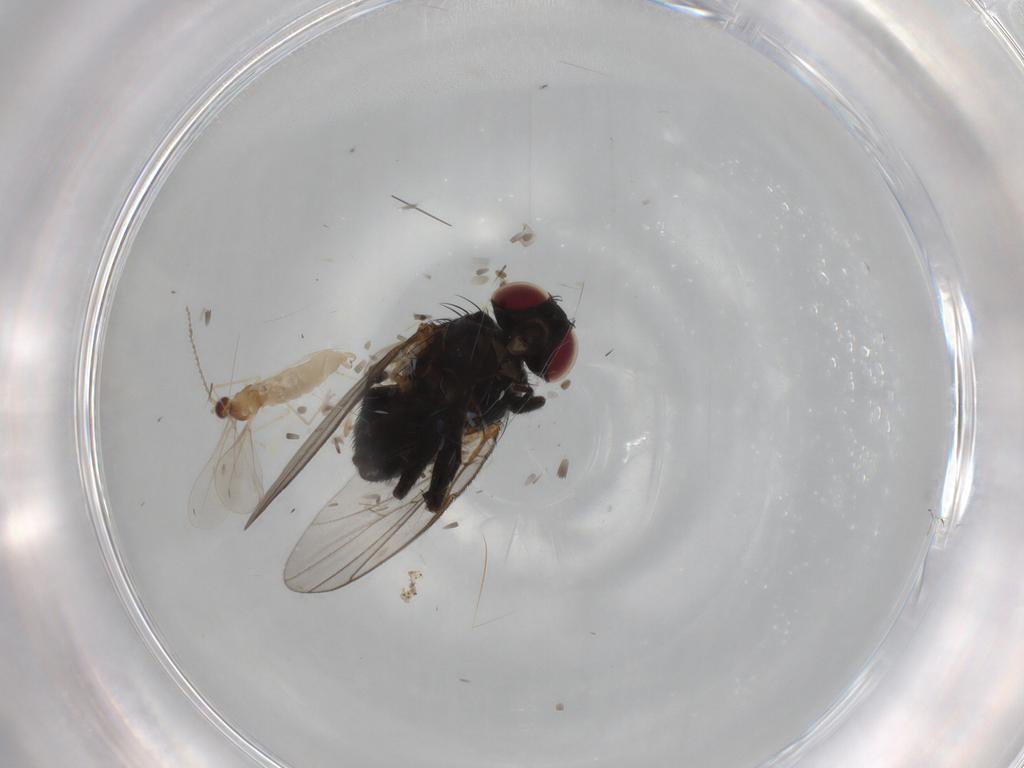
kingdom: Animalia
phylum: Arthropoda
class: Insecta
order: Diptera
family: Agromyzidae
